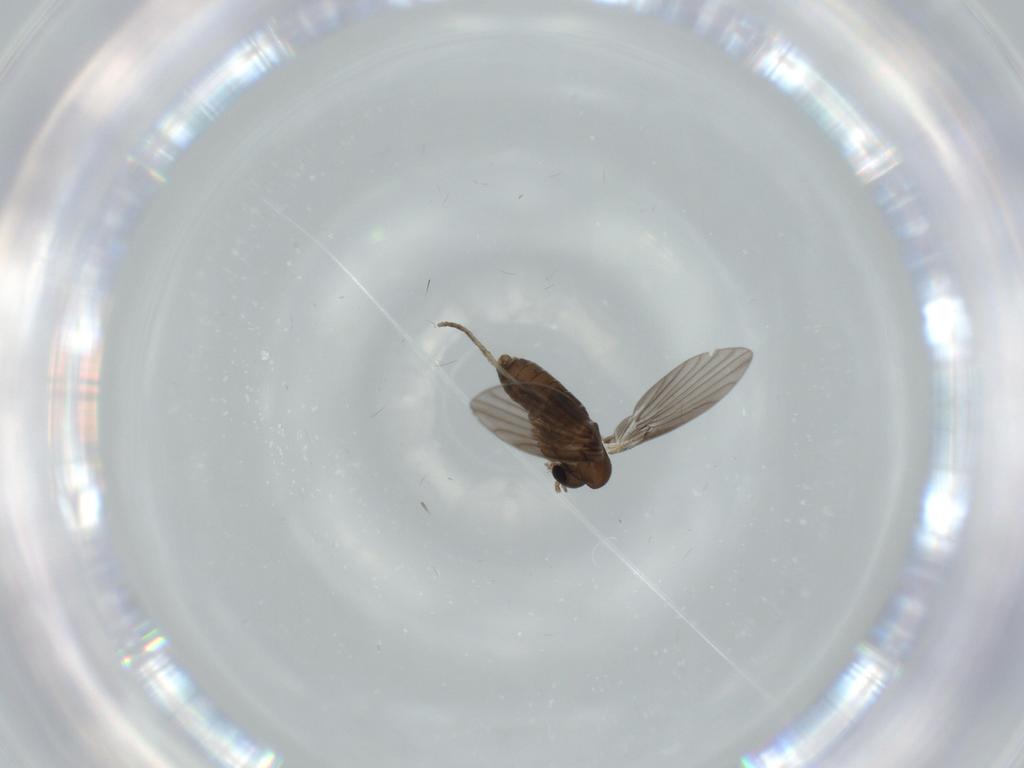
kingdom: Animalia
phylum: Arthropoda
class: Insecta
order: Diptera
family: Psychodidae
